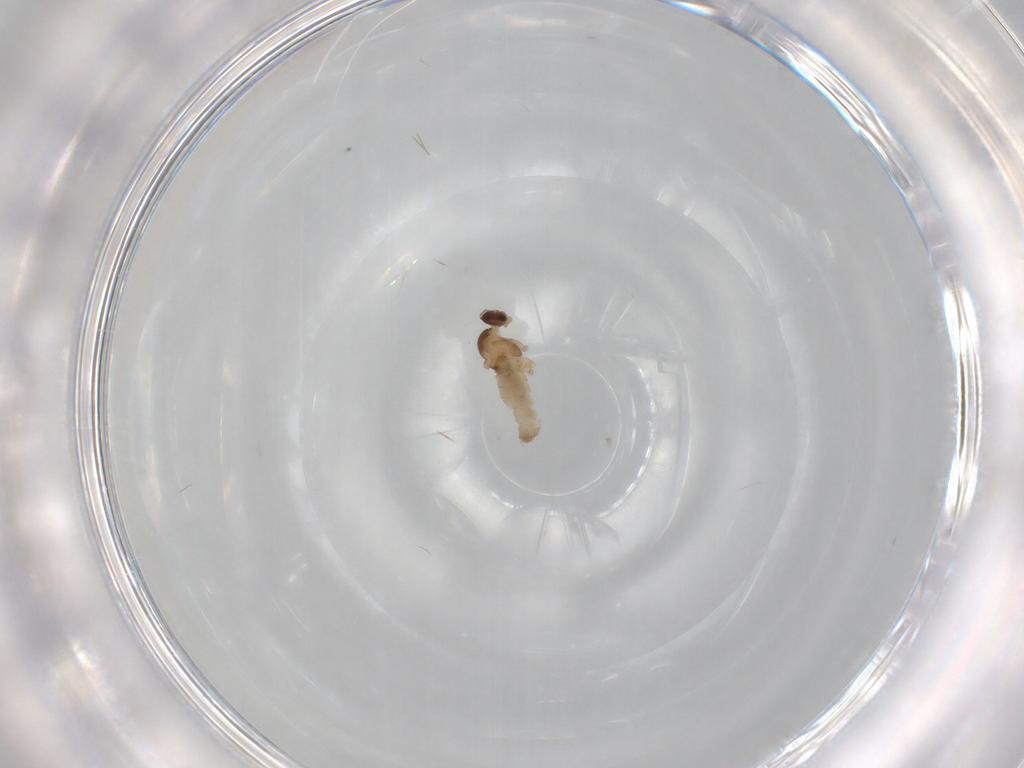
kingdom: Animalia
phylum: Arthropoda
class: Insecta
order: Diptera
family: Cecidomyiidae
